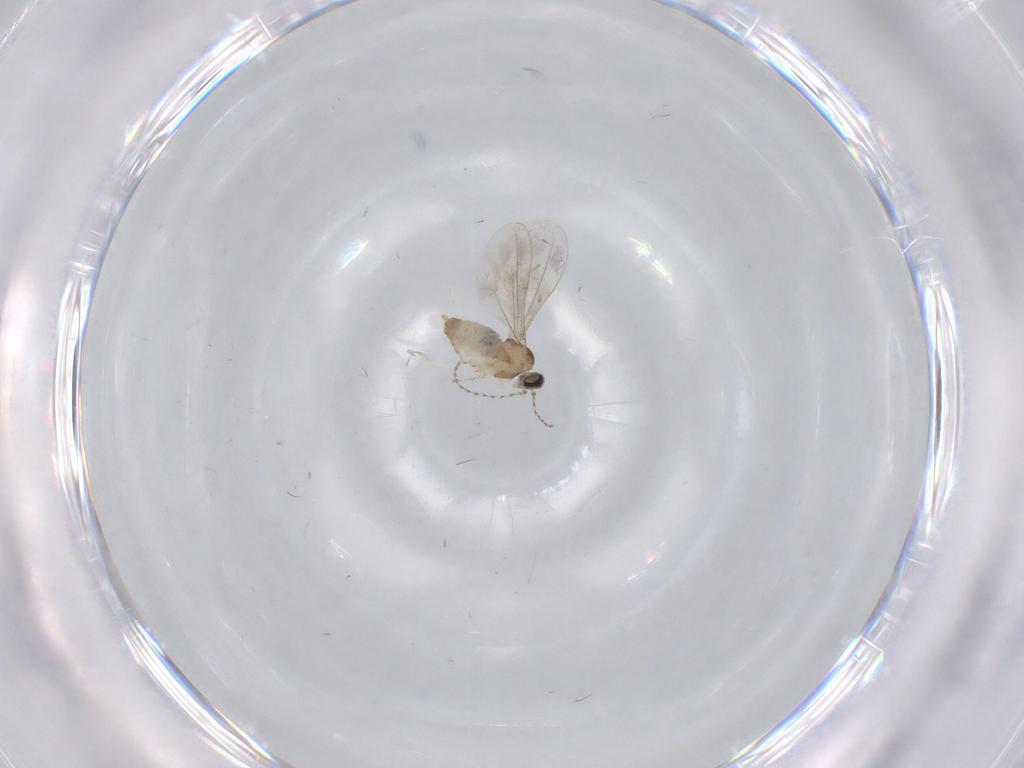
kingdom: Animalia
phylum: Arthropoda
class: Insecta
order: Diptera
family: Cecidomyiidae
